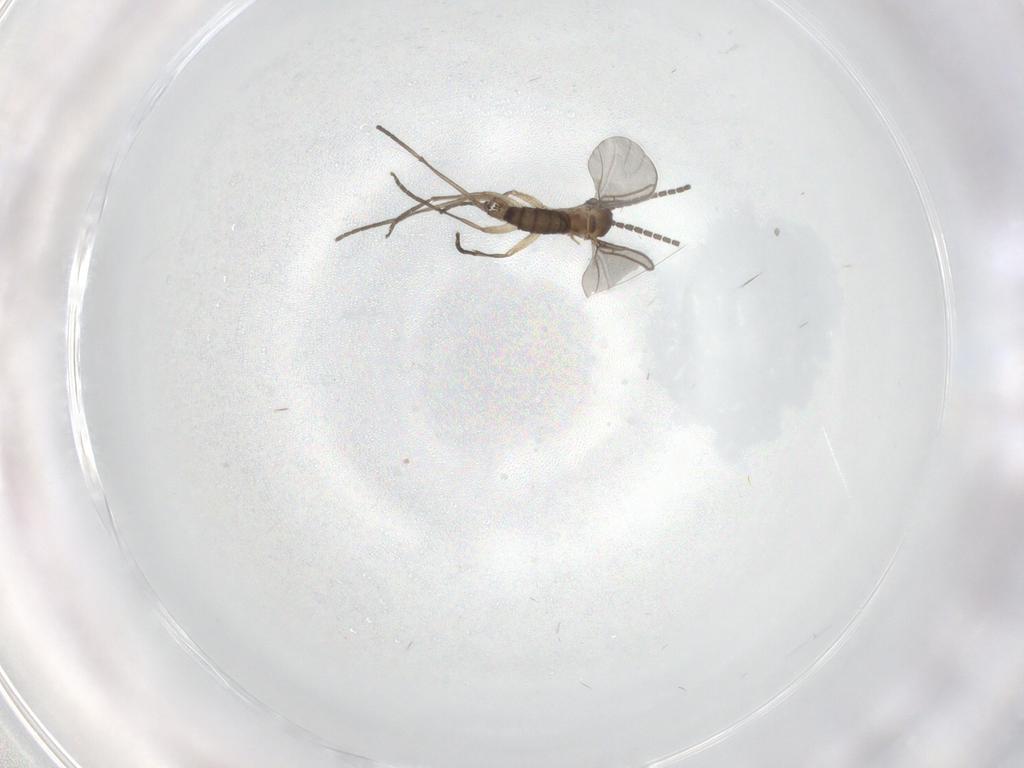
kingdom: Animalia
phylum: Arthropoda
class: Insecta
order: Diptera
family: Sciaridae
